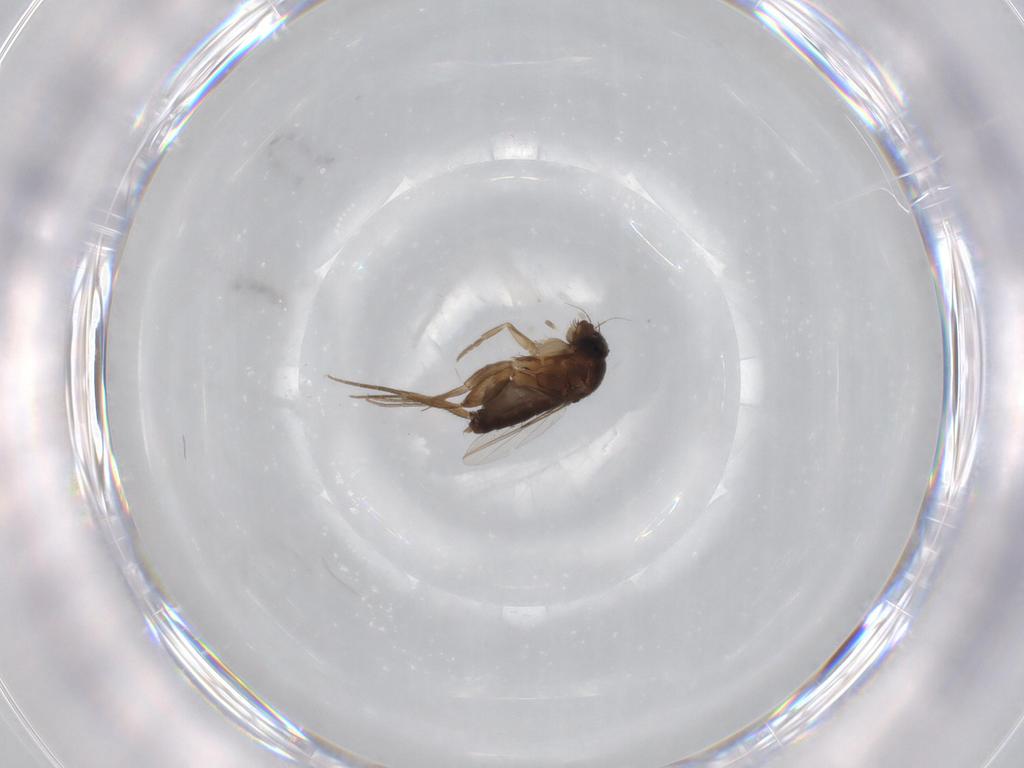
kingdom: Animalia
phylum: Arthropoda
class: Insecta
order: Diptera
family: Phoridae
